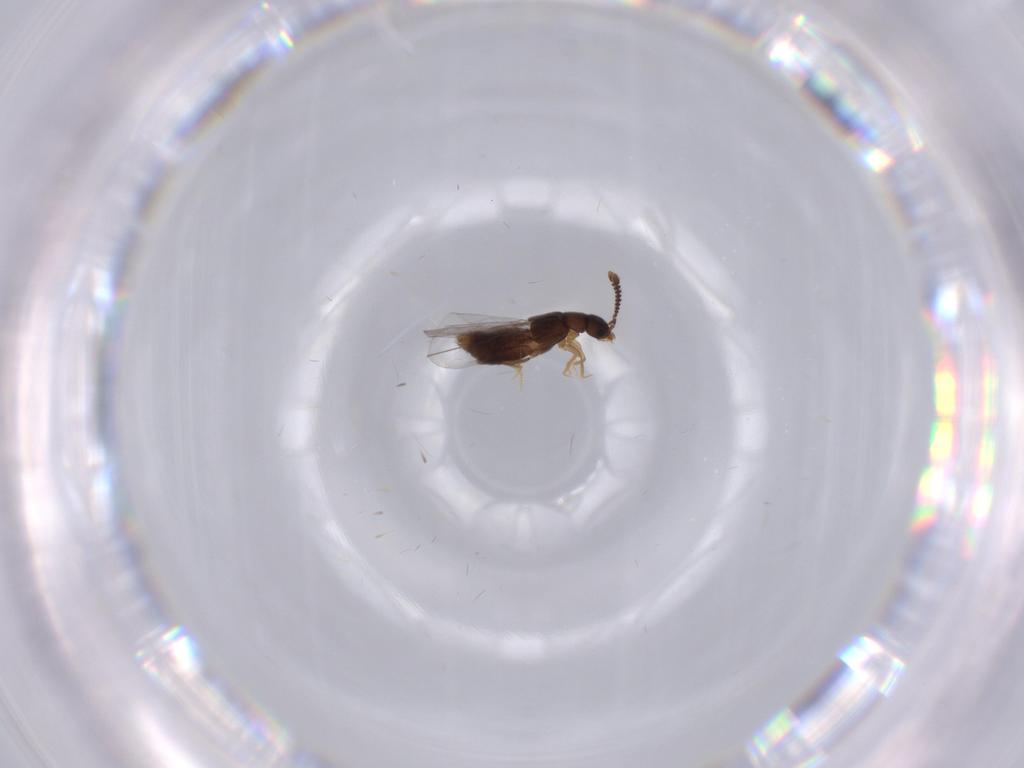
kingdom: Animalia
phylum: Arthropoda
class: Insecta
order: Coleoptera
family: Staphylinidae
